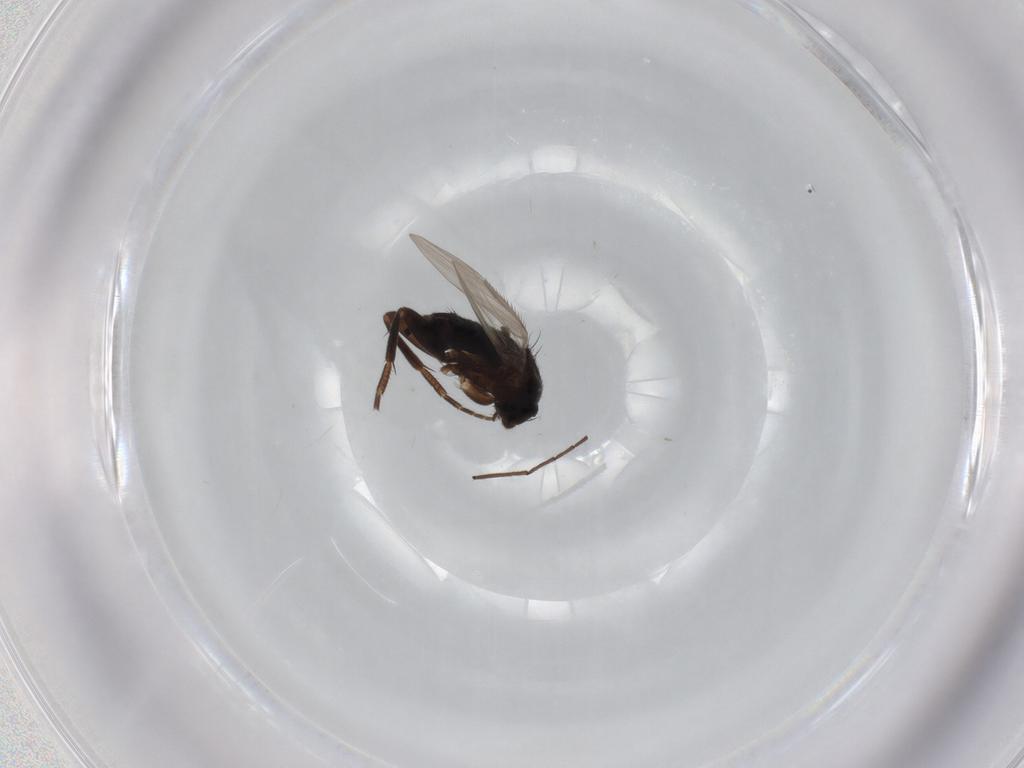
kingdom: Animalia
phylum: Arthropoda
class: Insecta
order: Diptera
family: Phoridae
